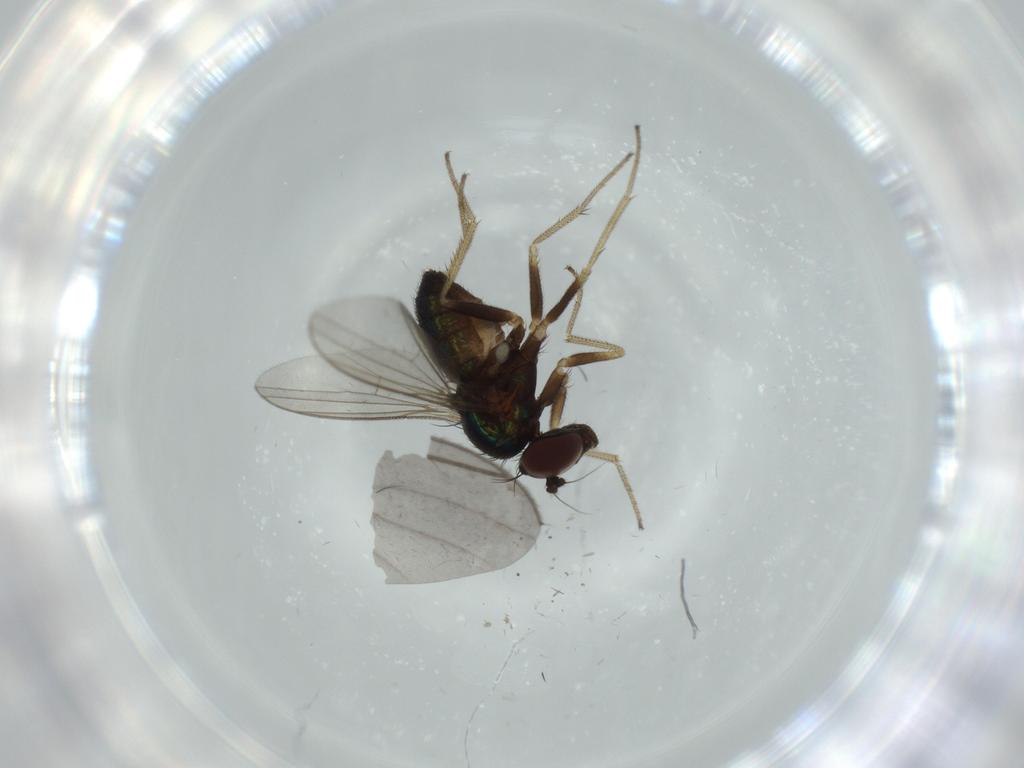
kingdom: Animalia
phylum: Arthropoda
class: Insecta
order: Diptera
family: Sciaridae
